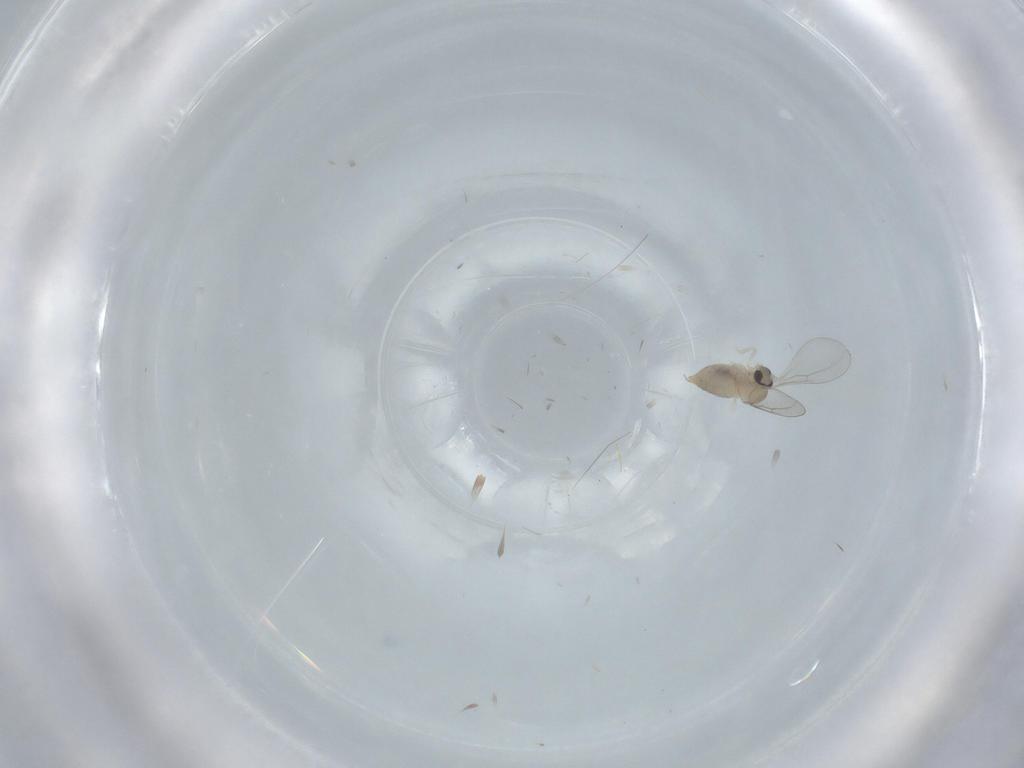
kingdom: Animalia
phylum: Arthropoda
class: Insecta
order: Diptera
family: Cecidomyiidae
